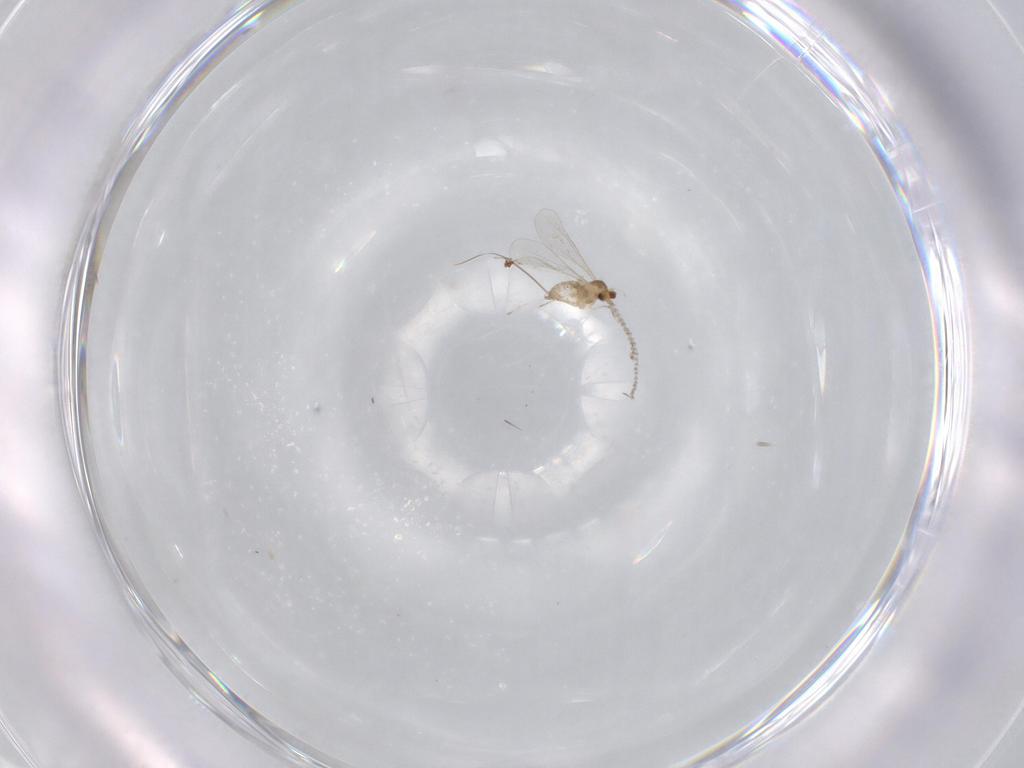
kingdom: Animalia
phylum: Arthropoda
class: Insecta
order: Diptera
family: Cecidomyiidae
